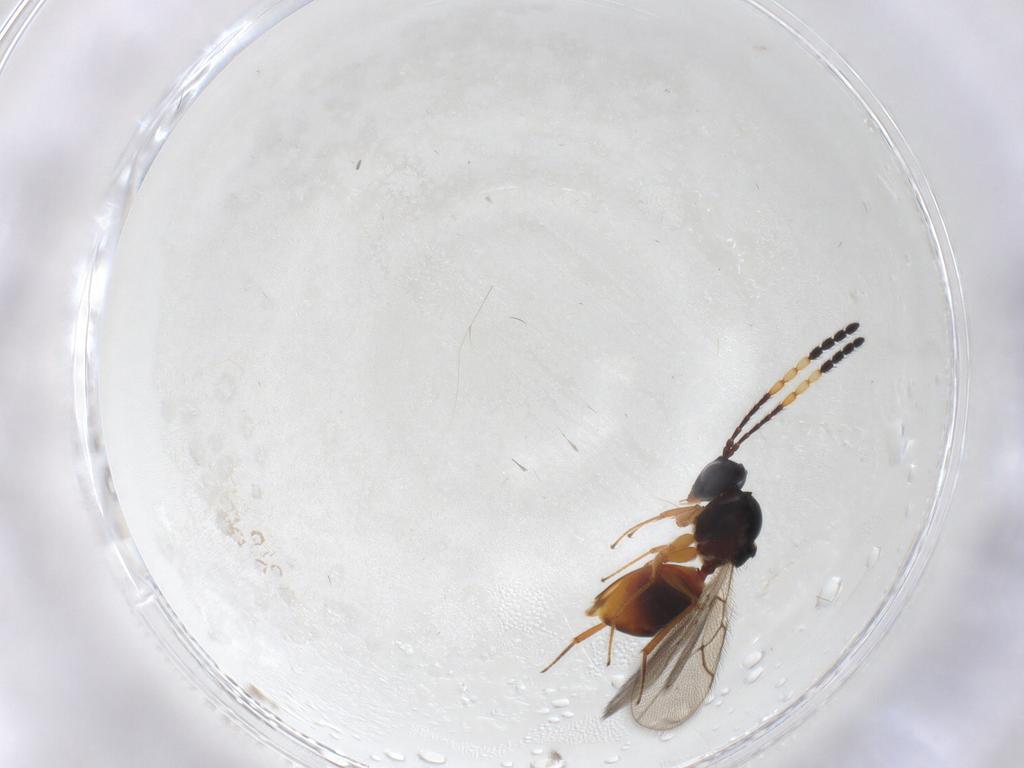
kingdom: Animalia
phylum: Arthropoda
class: Insecta
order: Hymenoptera
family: Figitidae
